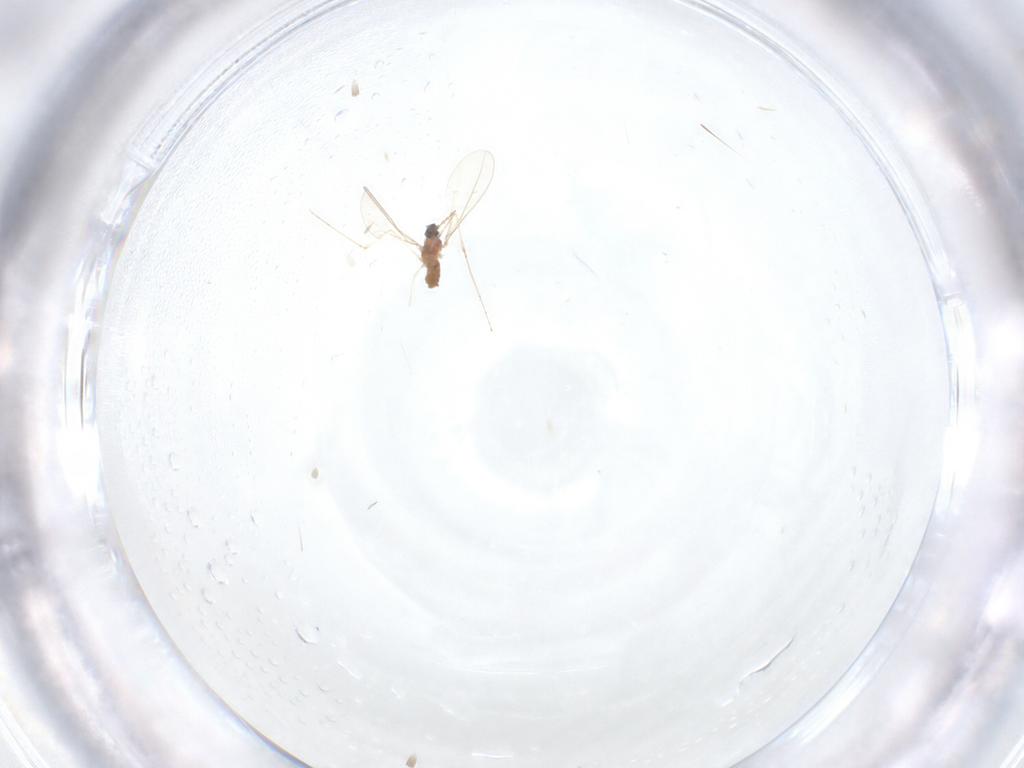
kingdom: Animalia
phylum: Arthropoda
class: Insecta
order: Diptera
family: Cecidomyiidae
